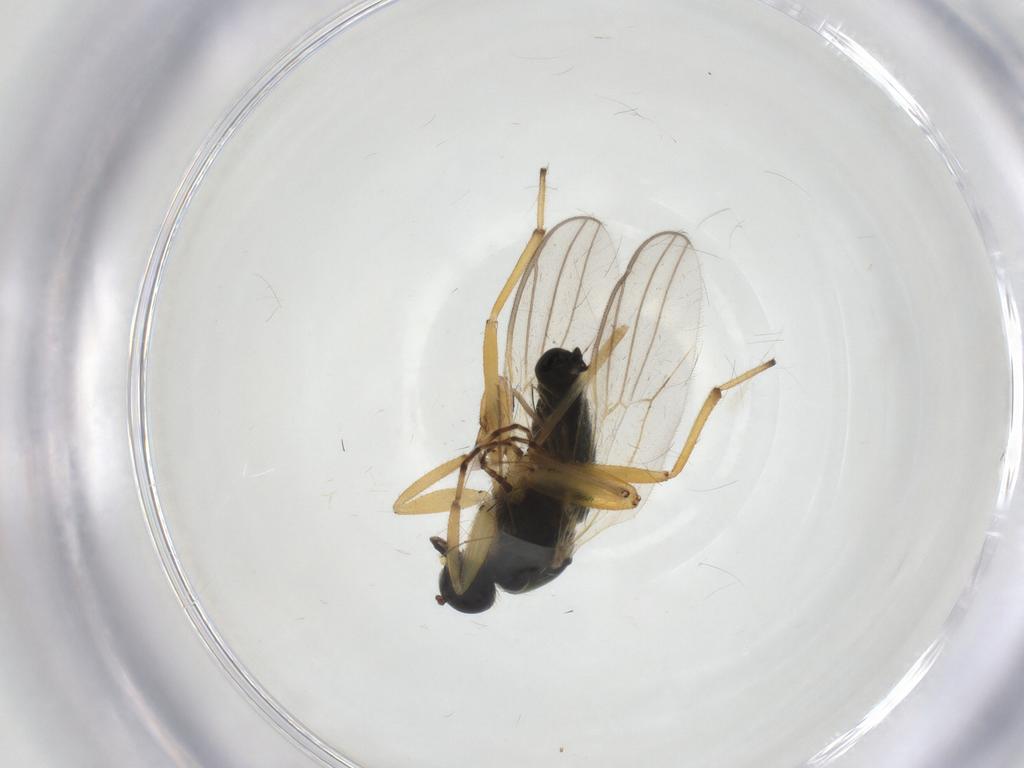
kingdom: Animalia
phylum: Arthropoda
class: Insecta
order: Diptera
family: Hybotidae
